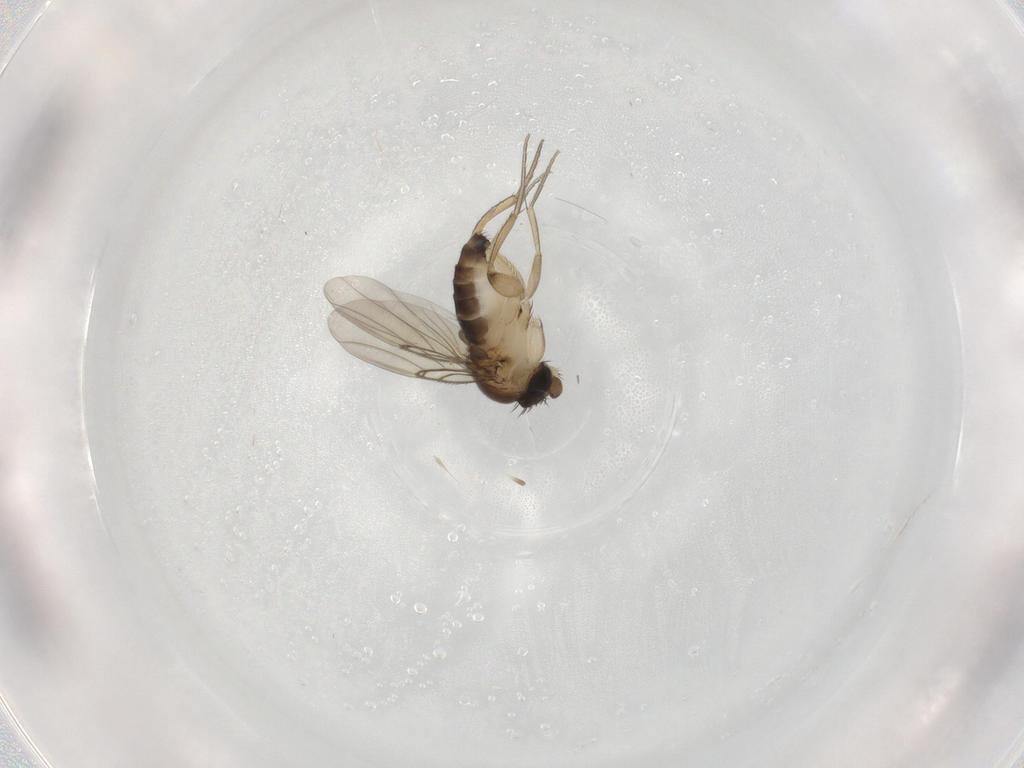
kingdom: Animalia
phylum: Arthropoda
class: Insecta
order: Diptera
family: Phoridae
